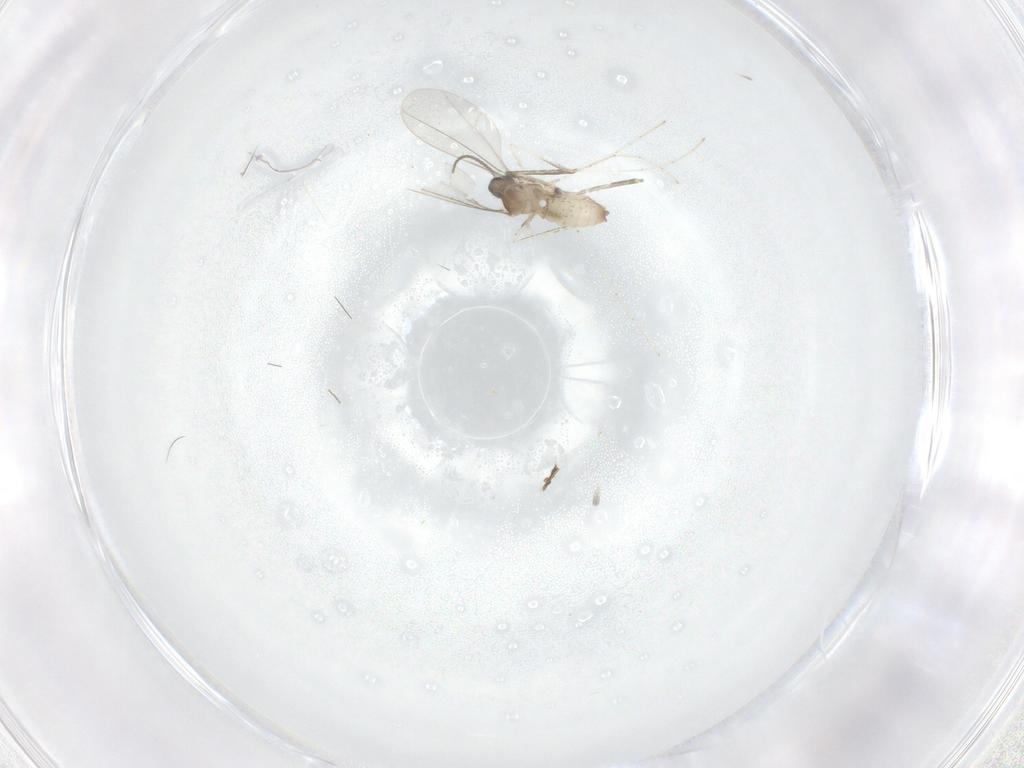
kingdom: Animalia
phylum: Arthropoda
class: Insecta
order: Diptera
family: Cecidomyiidae
